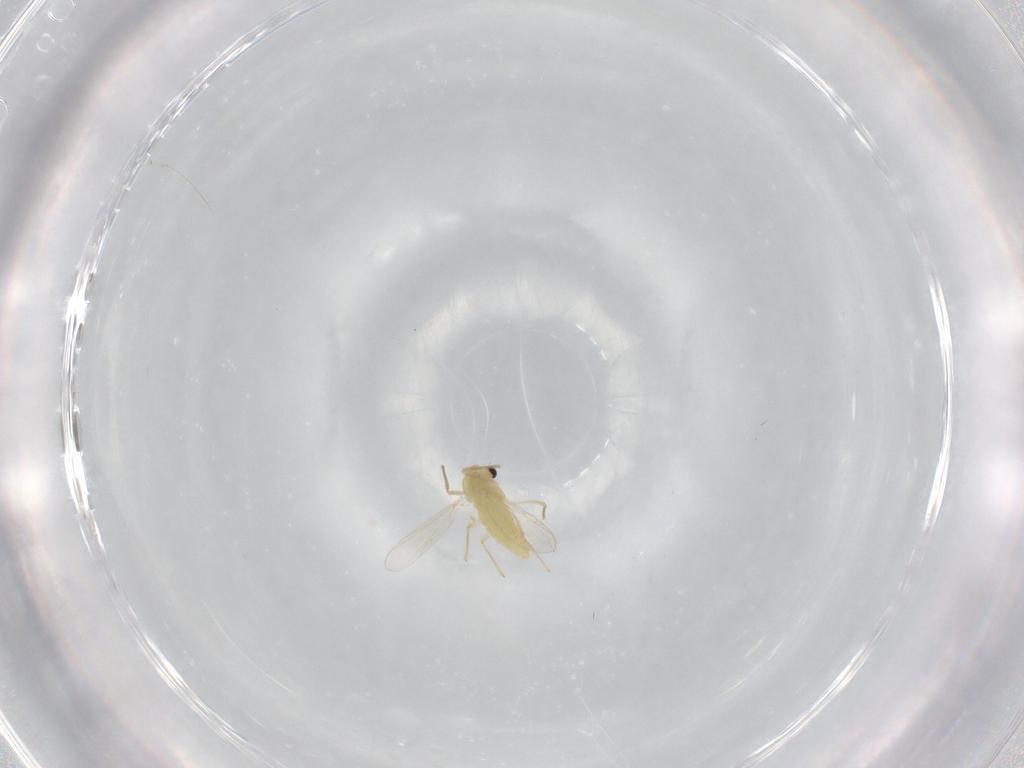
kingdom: Animalia
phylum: Arthropoda
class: Insecta
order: Diptera
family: Chironomidae
